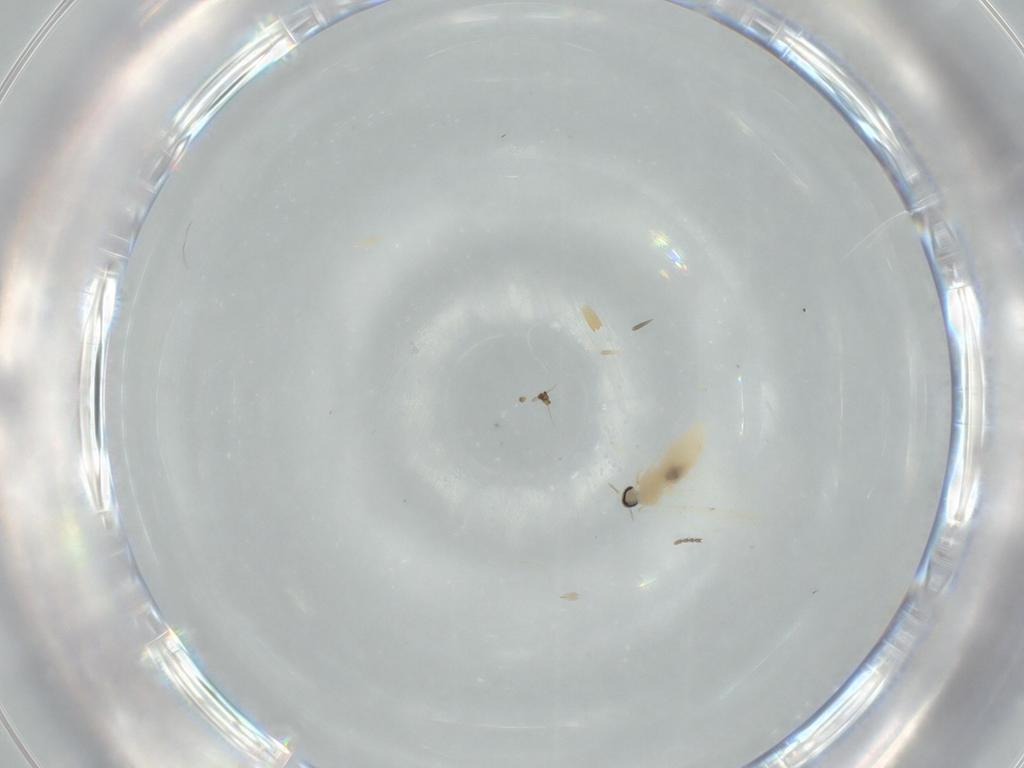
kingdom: Animalia
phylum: Arthropoda
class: Insecta
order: Diptera
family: Cecidomyiidae
